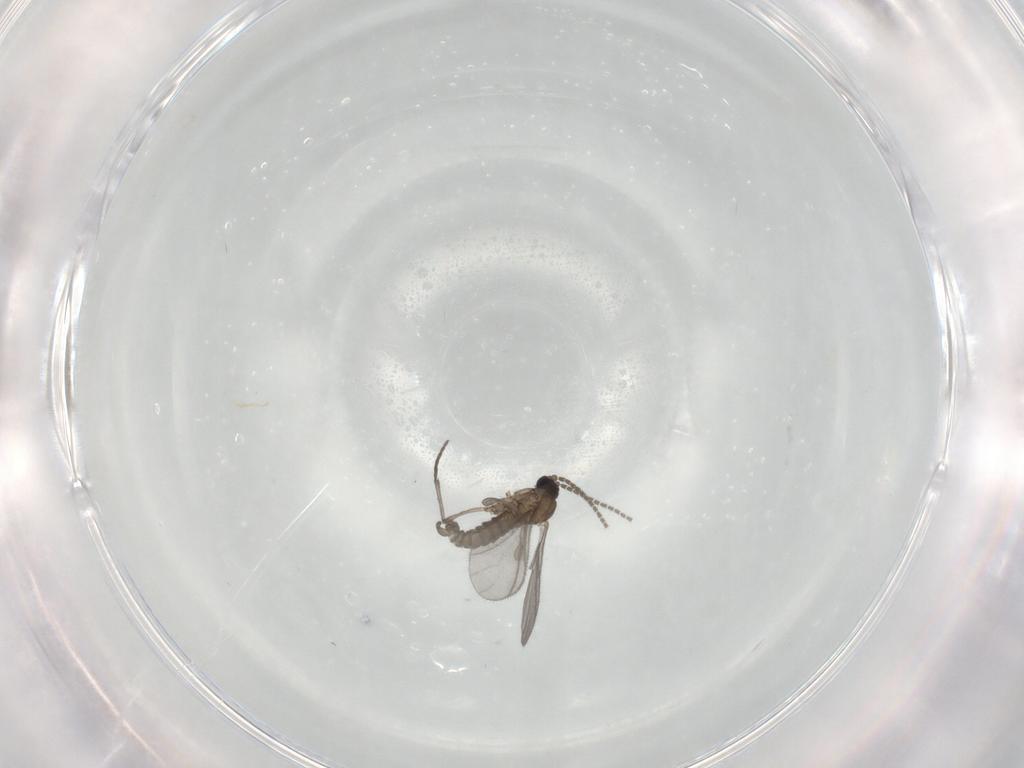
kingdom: Animalia
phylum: Arthropoda
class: Insecta
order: Diptera
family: Sciaridae
